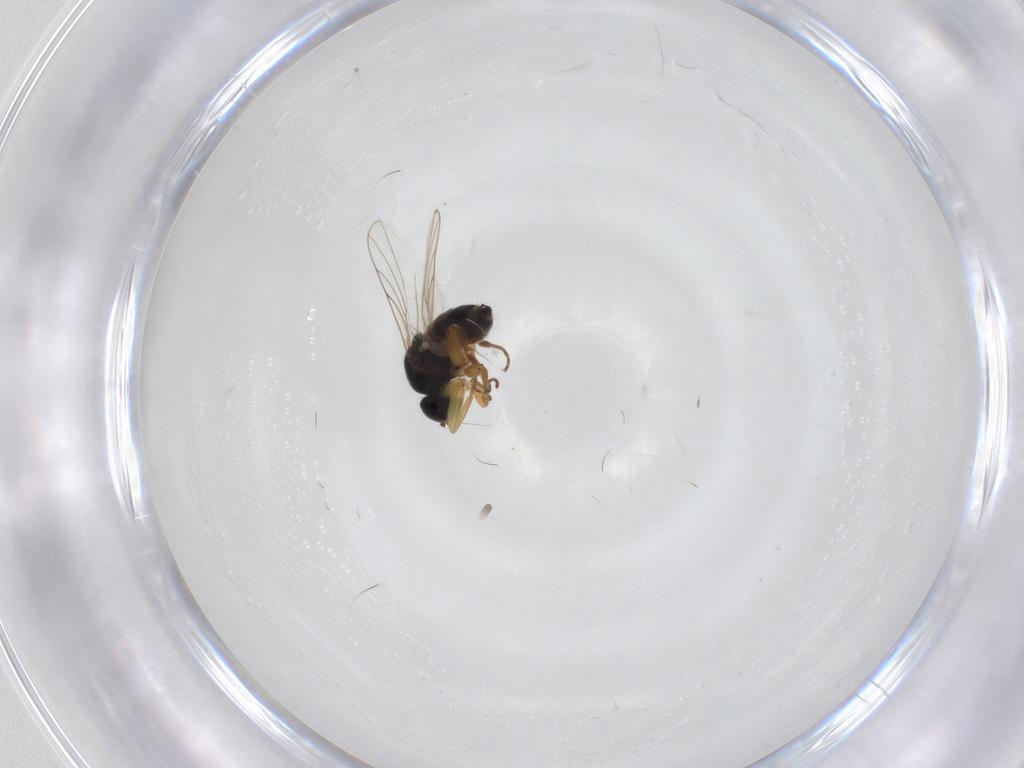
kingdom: Animalia
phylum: Arthropoda
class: Insecta
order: Diptera
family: Hybotidae
